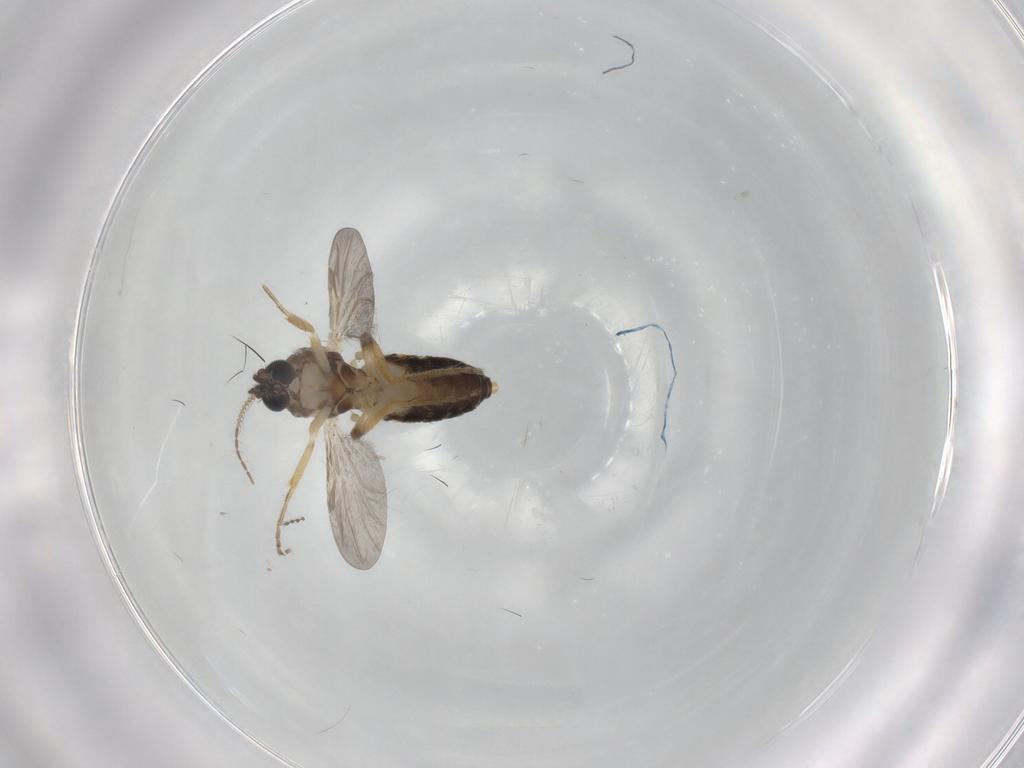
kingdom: Animalia
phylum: Arthropoda
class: Insecta
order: Diptera
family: Ceratopogonidae
